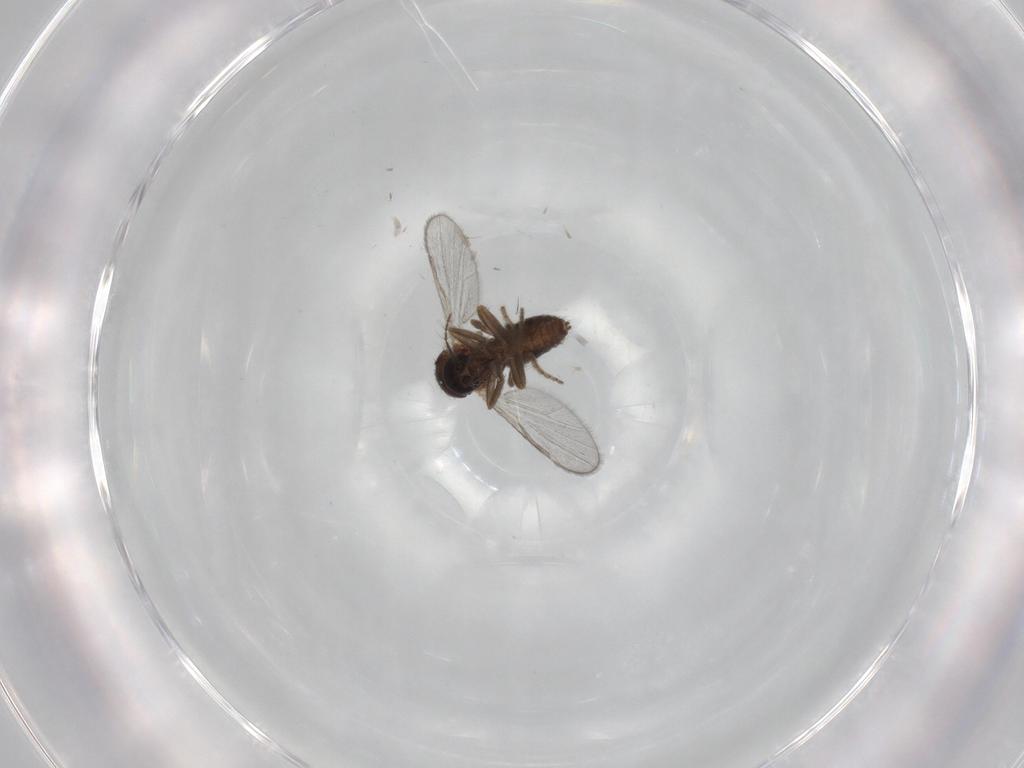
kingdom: Animalia
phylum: Arthropoda
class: Insecta
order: Diptera
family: Ceratopogonidae
